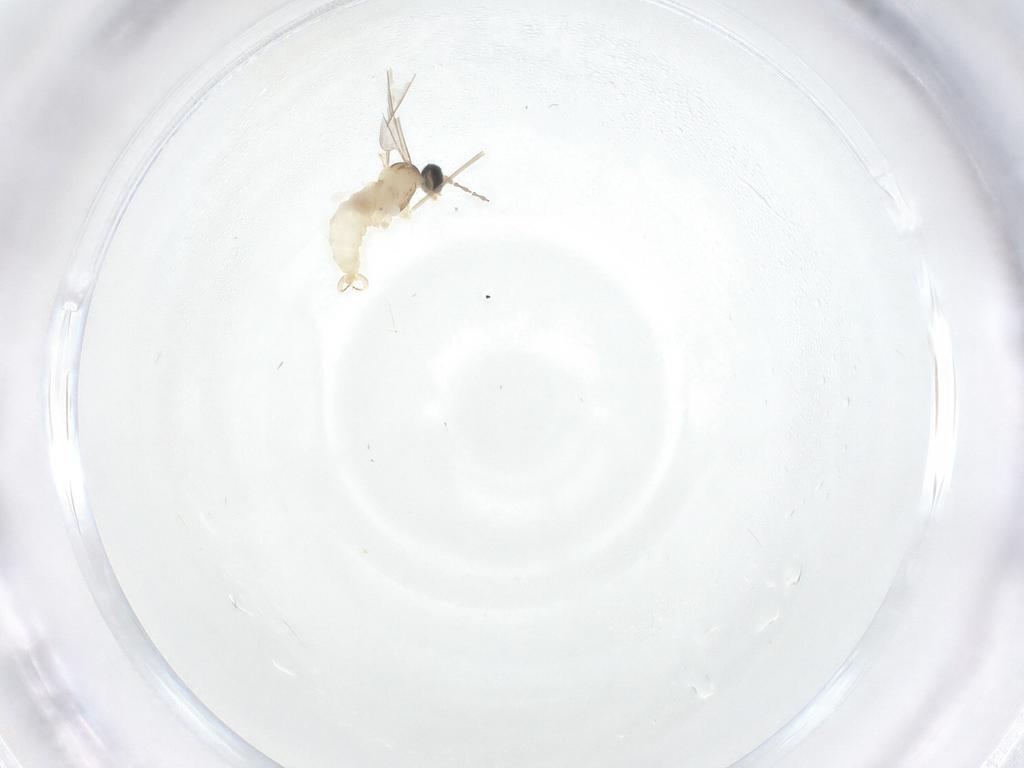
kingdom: Animalia
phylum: Arthropoda
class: Insecta
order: Diptera
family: Cecidomyiidae
